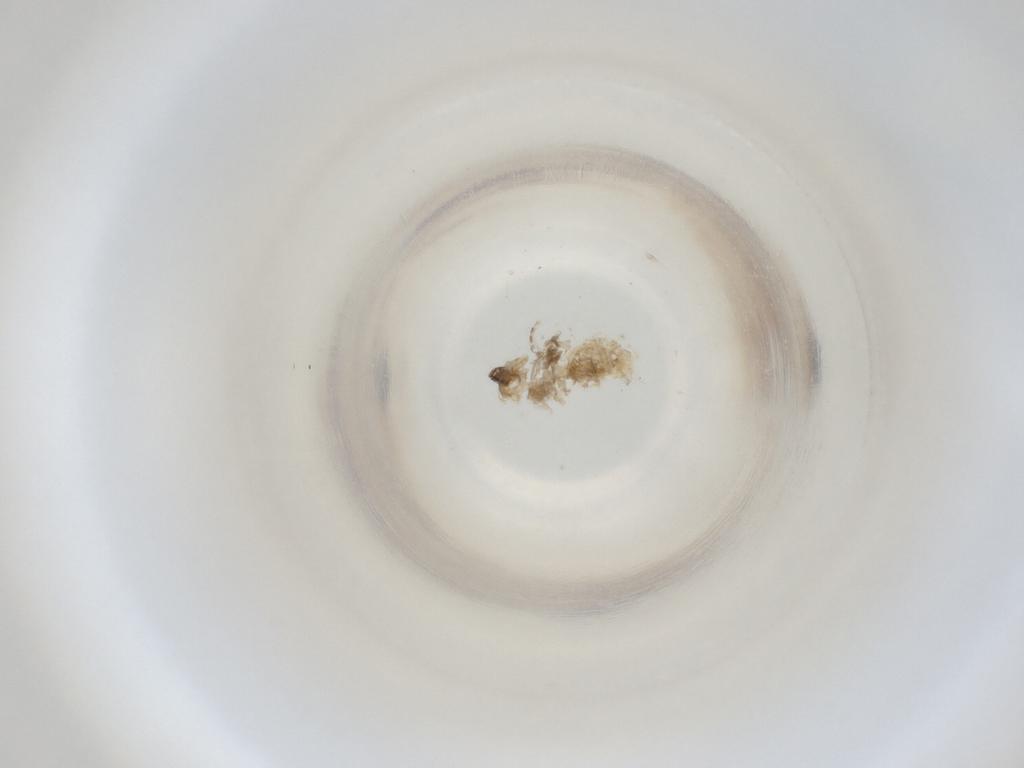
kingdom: Animalia
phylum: Arthropoda
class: Insecta
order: Diptera
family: Cecidomyiidae
